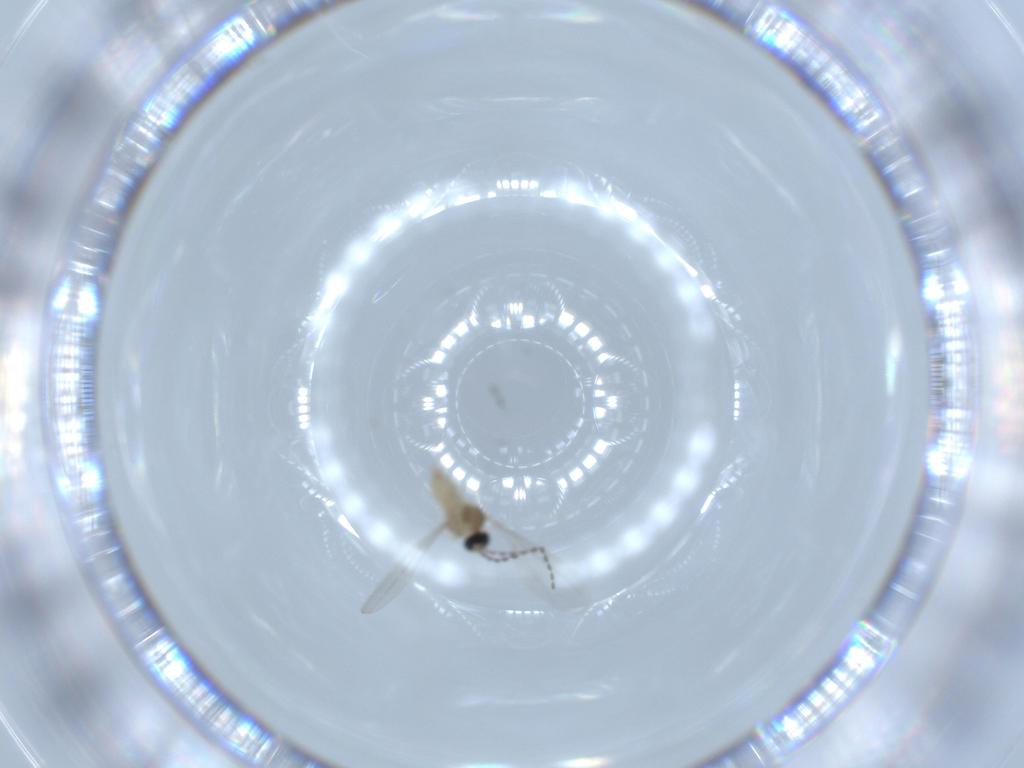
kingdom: Animalia
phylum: Arthropoda
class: Insecta
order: Diptera
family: Cecidomyiidae
